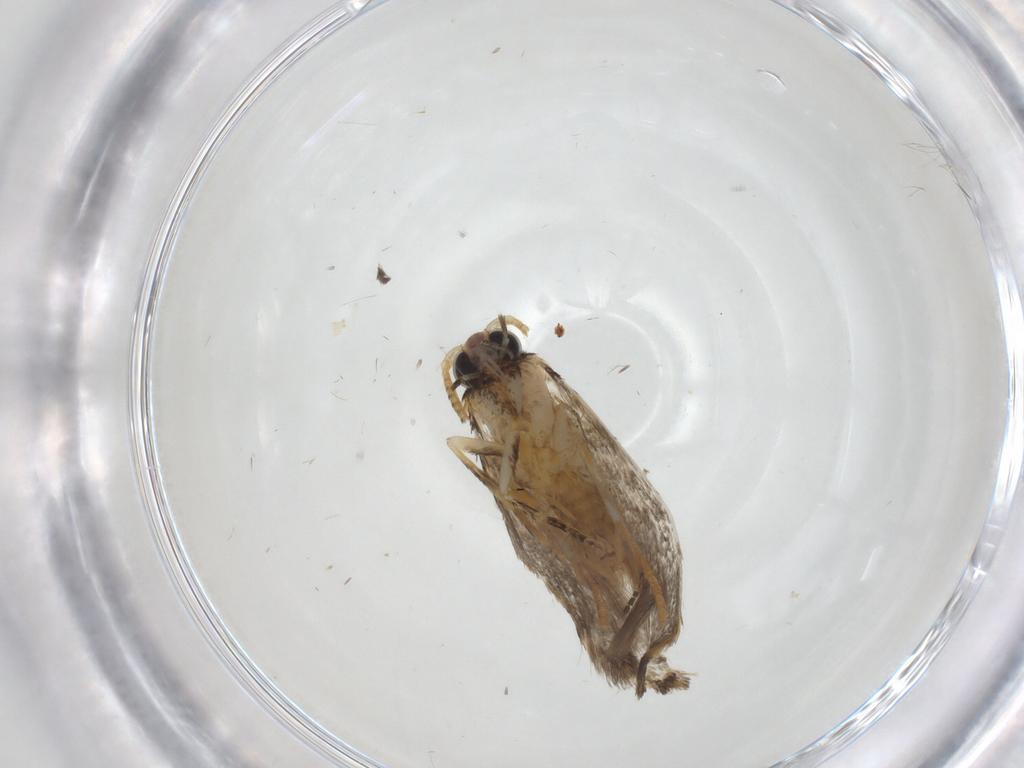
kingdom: Animalia
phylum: Arthropoda
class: Insecta
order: Lepidoptera
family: Tineidae
